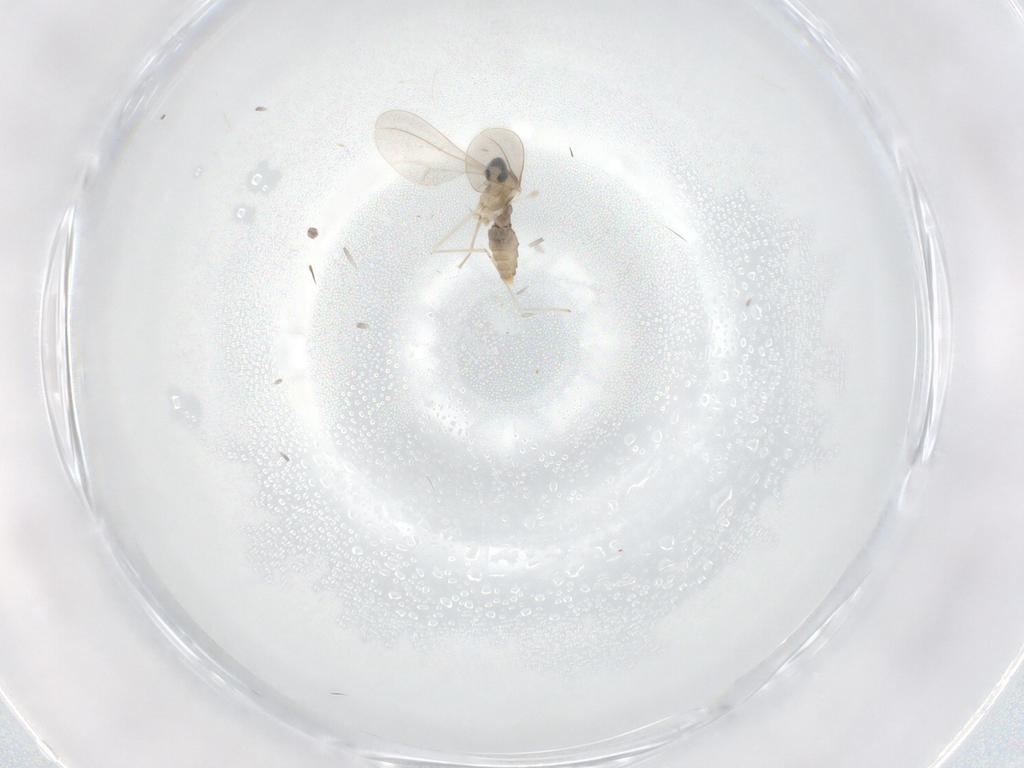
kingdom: Animalia
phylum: Arthropoda
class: Insecta
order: Diptera
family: Cecidomyiidae
